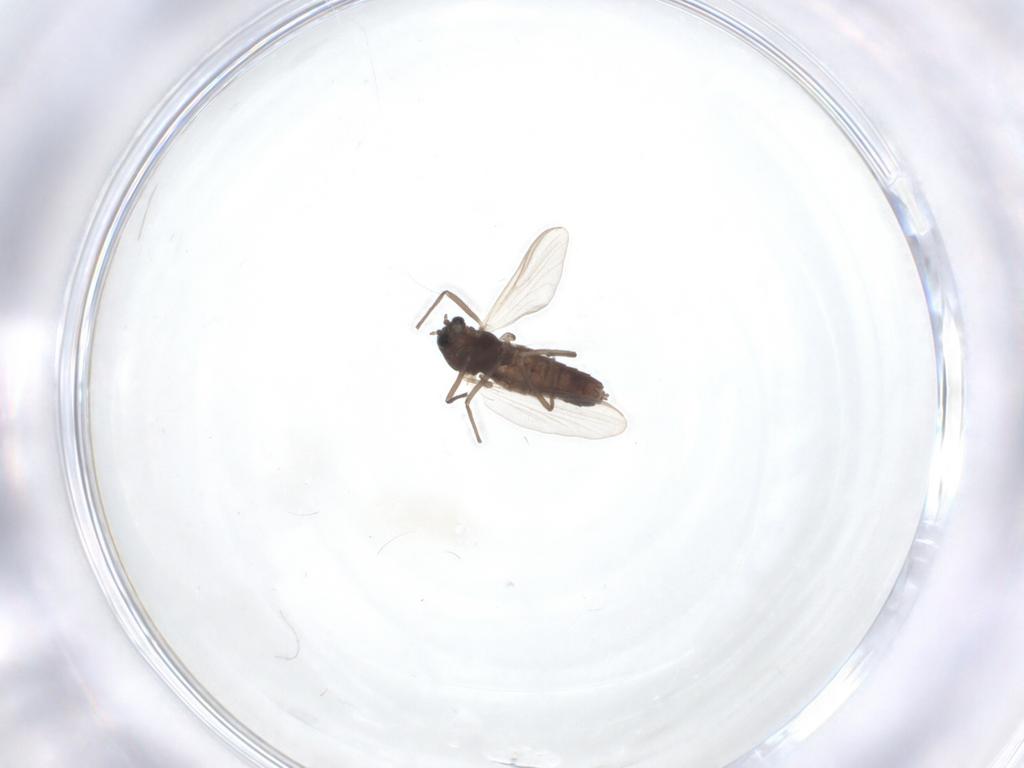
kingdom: Animalia
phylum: Arthropoda
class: Insecta
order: Diptera
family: Chironomidae
